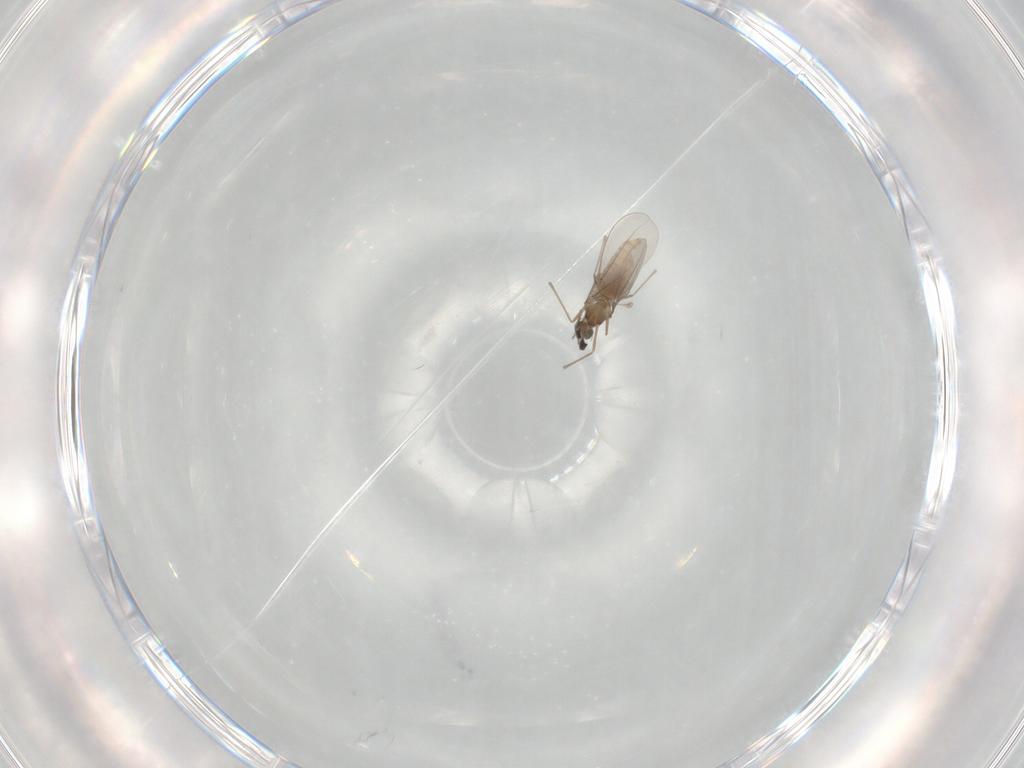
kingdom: Animalia
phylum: Arthropoda
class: Insecta
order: Diptera
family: Cecidomyiidae
